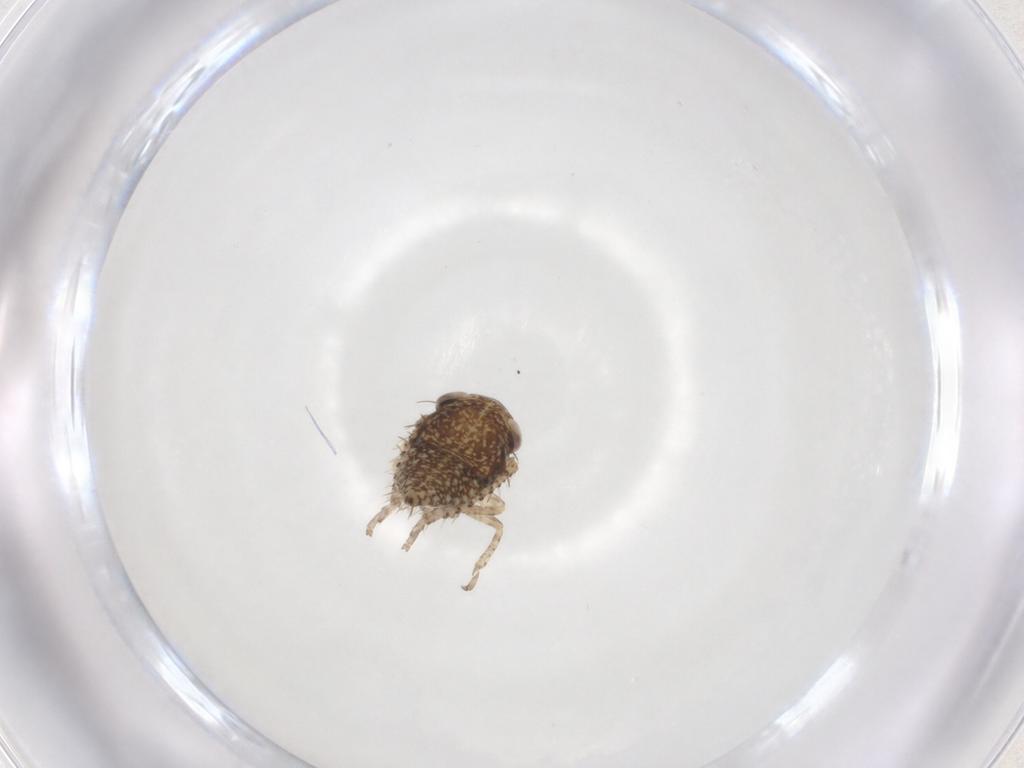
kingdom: Animalia
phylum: Arthropoda
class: Insecta
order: Hemiptera
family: Cicadellidae
